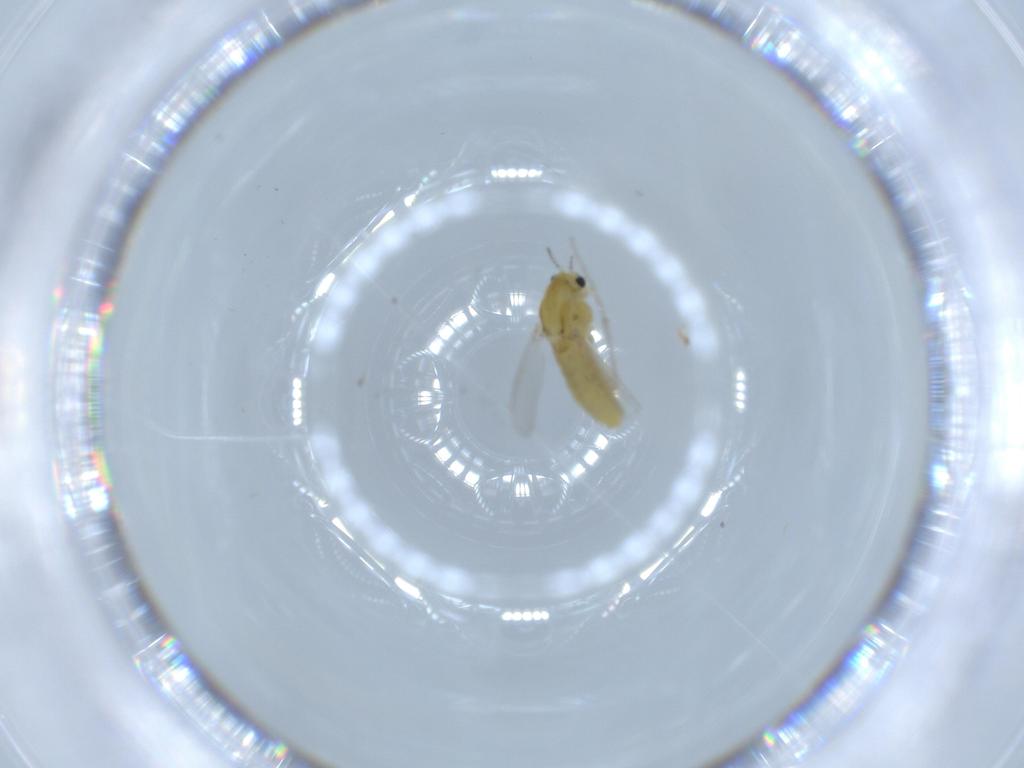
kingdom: Animalia
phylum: Arthropoda
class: Insecta
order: Diptera
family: Chironomidae
